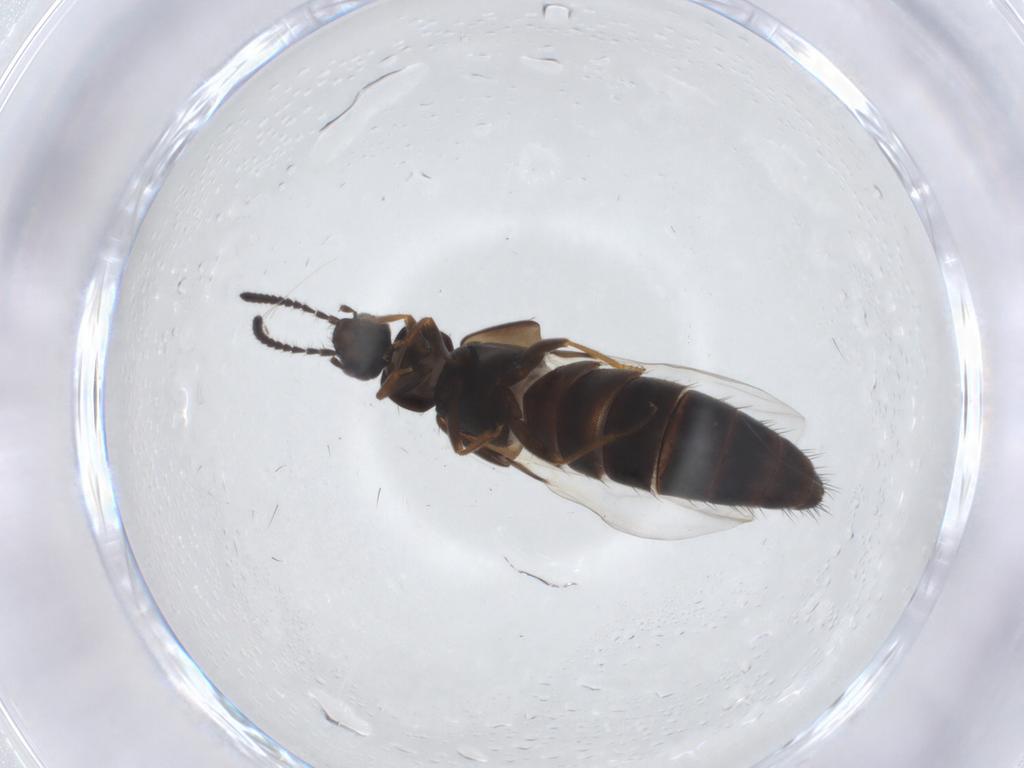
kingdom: Animalia
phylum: Arthropoda
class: Insecta
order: Coleoptera
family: Staphylinidae
